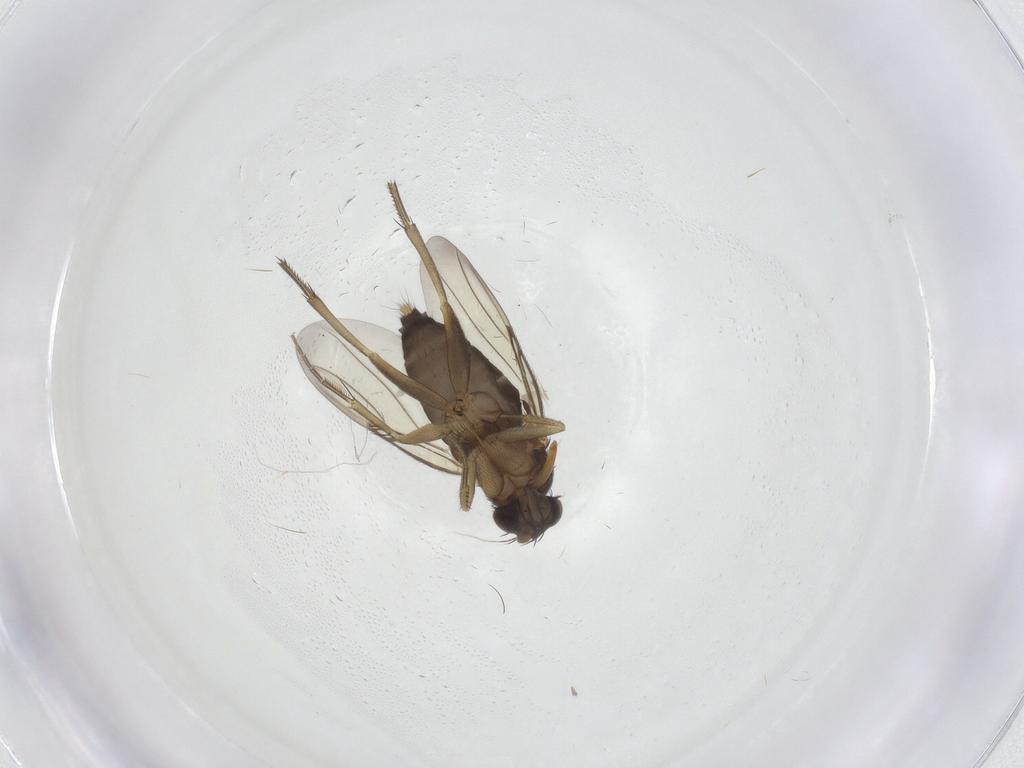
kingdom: Animalia
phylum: Arthropoda
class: Insecta
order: Diptera
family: Phoridae
